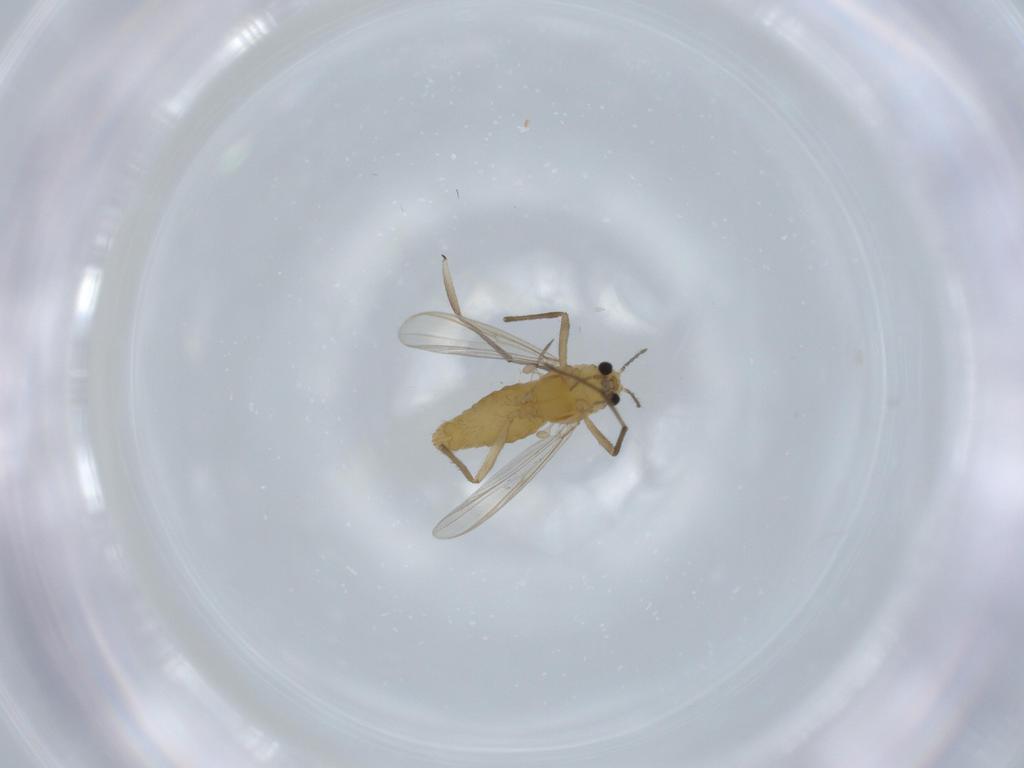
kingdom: Animalia
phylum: Arthropoda
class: Insecta
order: Diptera
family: Chironomidae
